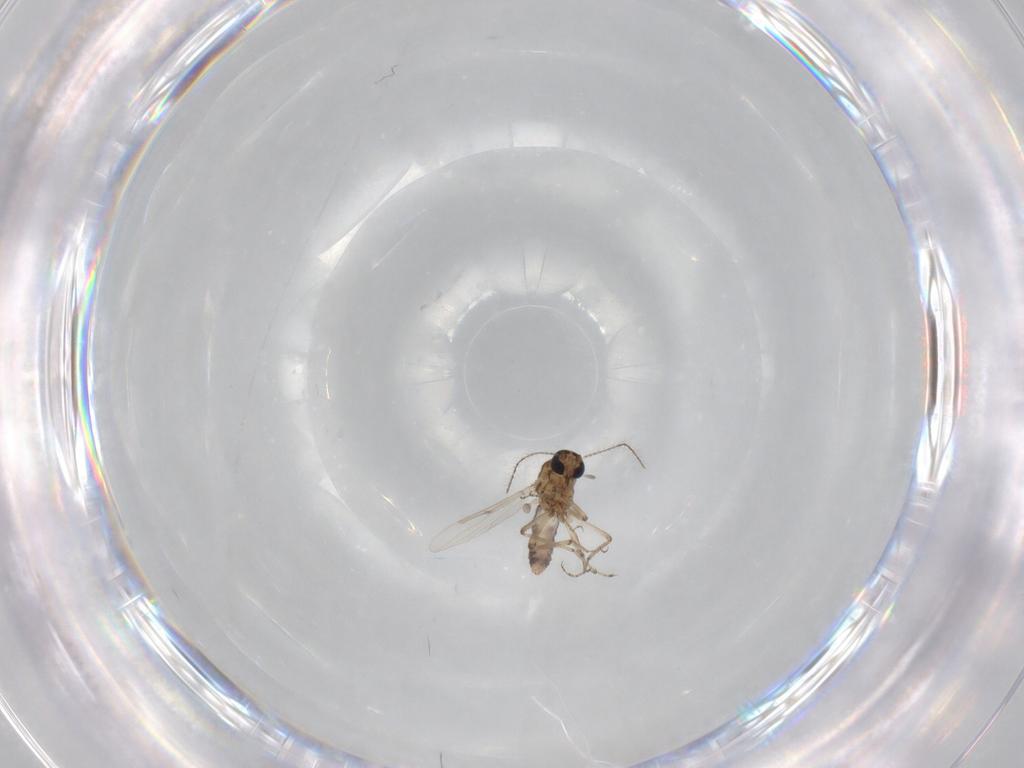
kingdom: Animalia
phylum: Arthropoda
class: Insecta
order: Diptera
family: Ceratopogonidae
